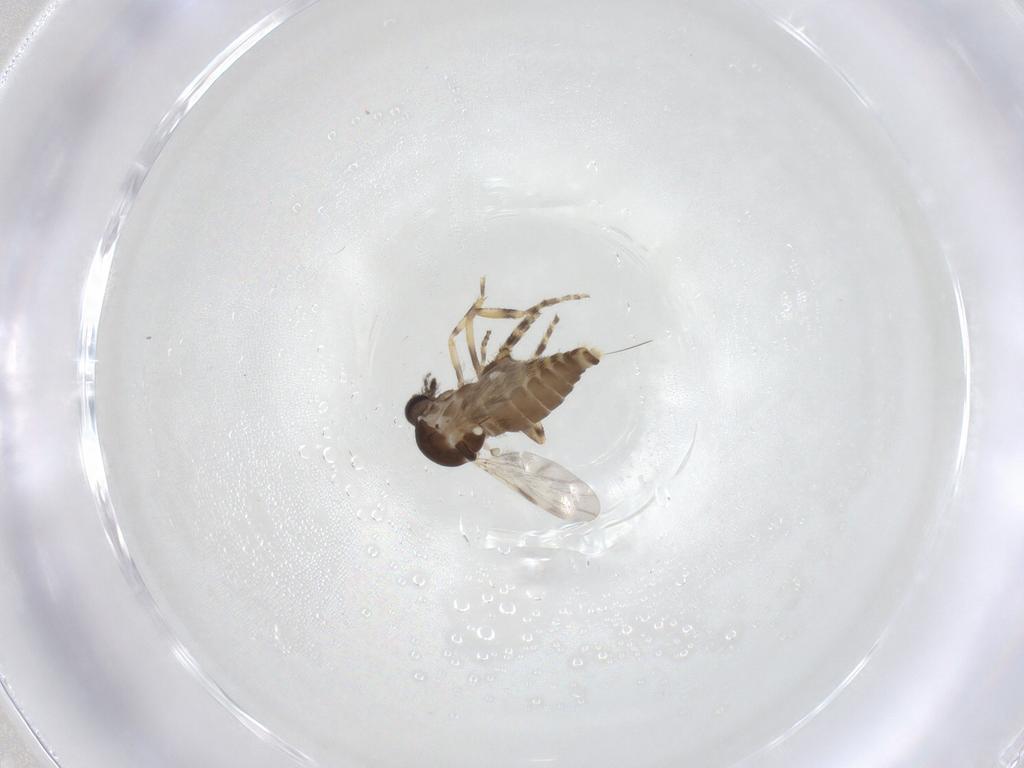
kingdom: Animalia
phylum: Arthropoda
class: Insecta
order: Diptera
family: Ceratopogonidae
